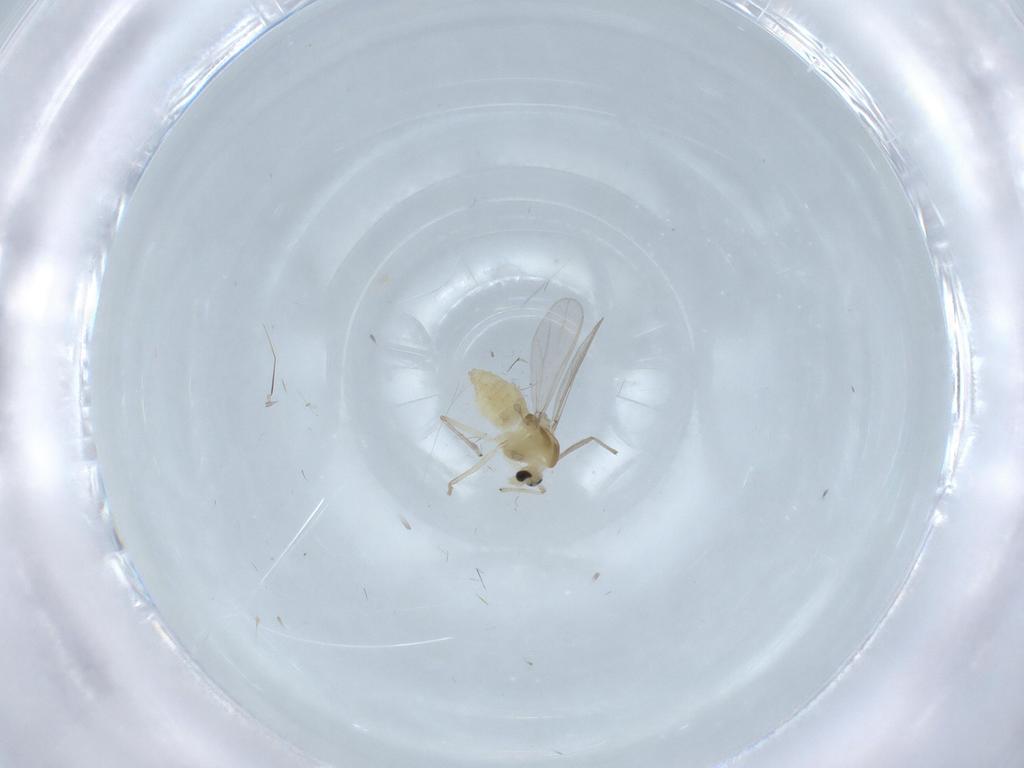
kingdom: Animalia
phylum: Arthropoda
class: Insecta
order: Diptera
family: Chironomidae
